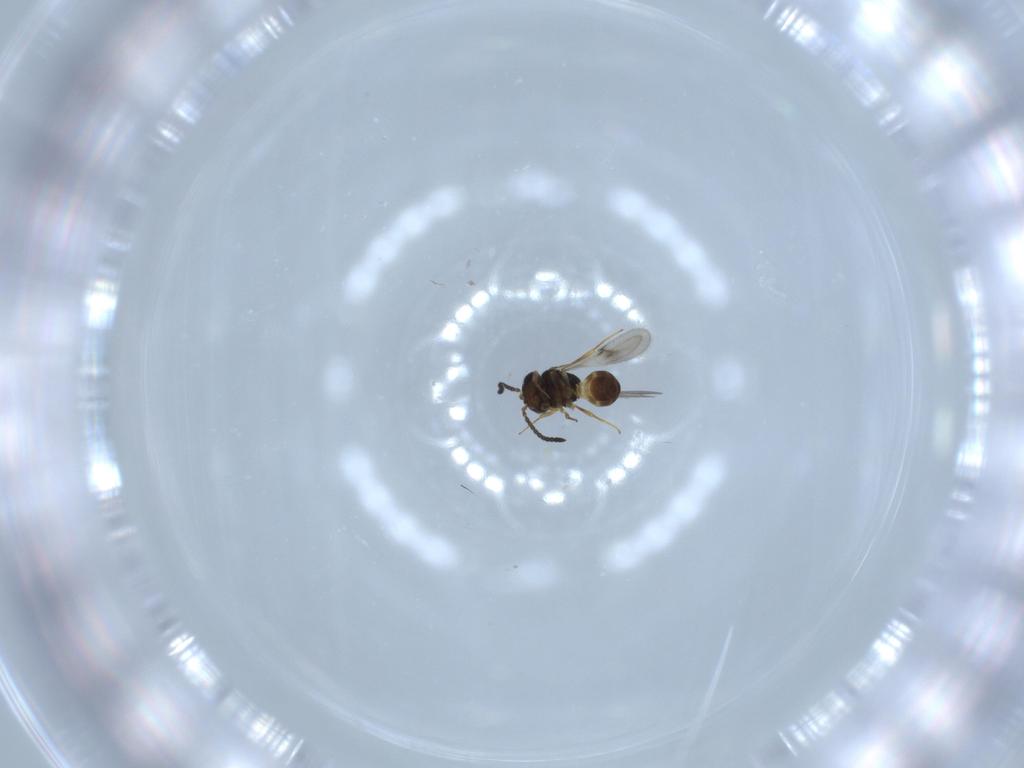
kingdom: Animalia
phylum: Arthropoda
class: Arachnida
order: Araneae
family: Pholcidae
